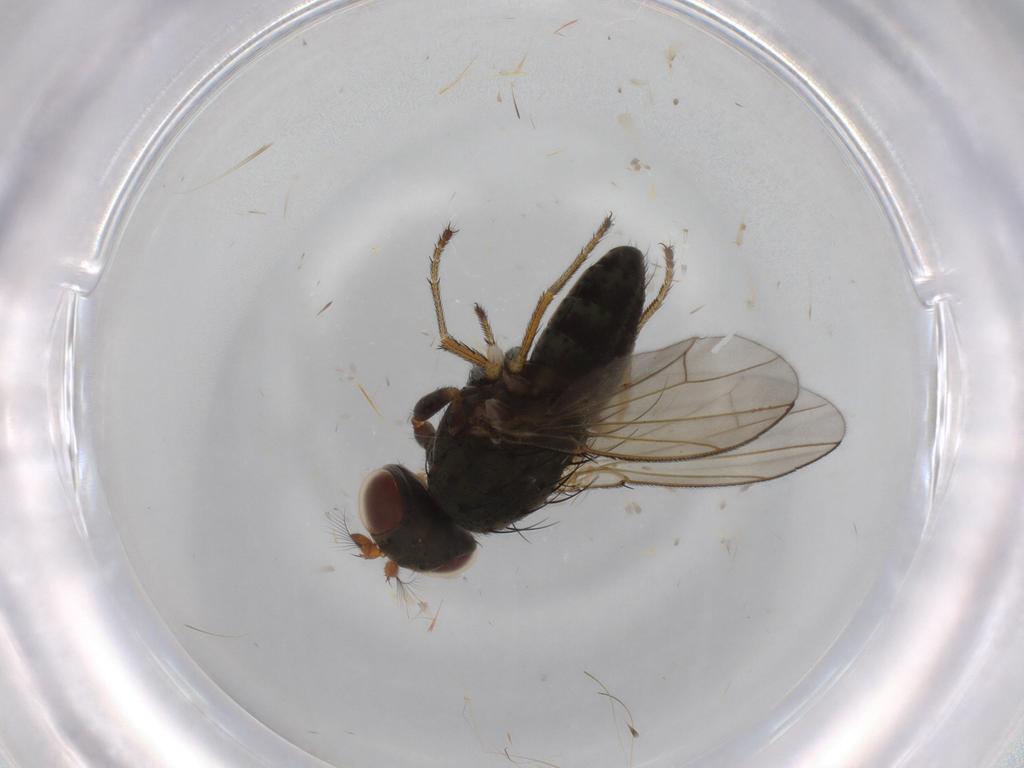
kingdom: Animalia
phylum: Arthropoda
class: Insecta
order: Diptera
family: Ephydridae
